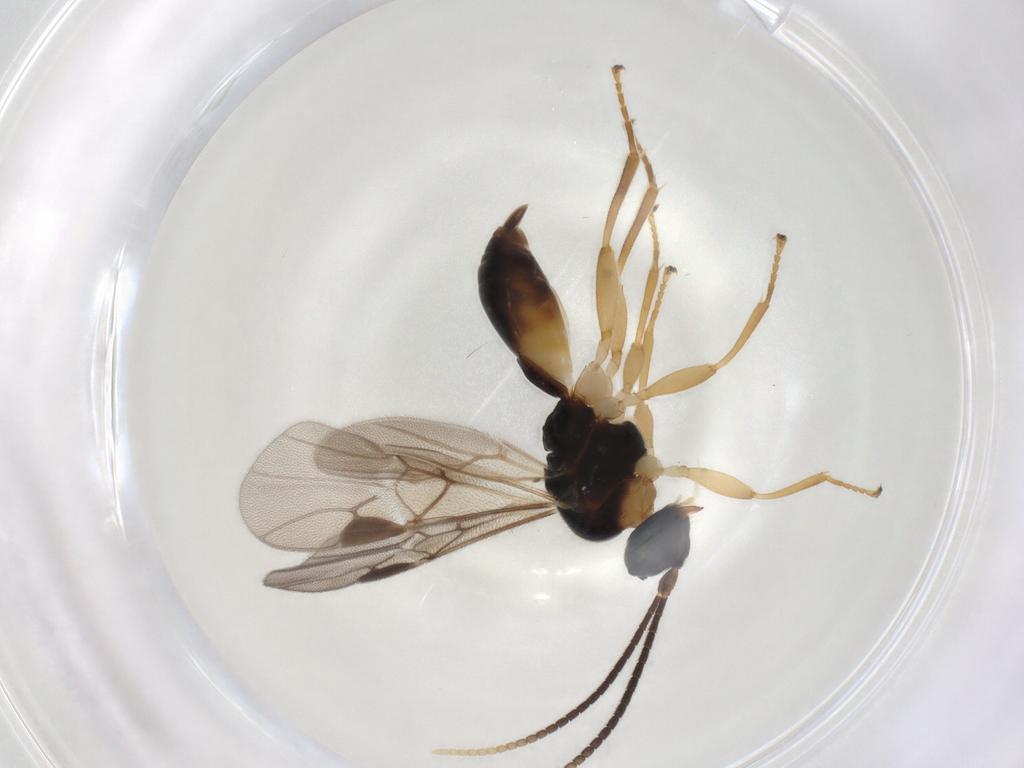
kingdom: Animalia
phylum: Arthropoda
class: Insecta
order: Hymenoptera
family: Braconidae
